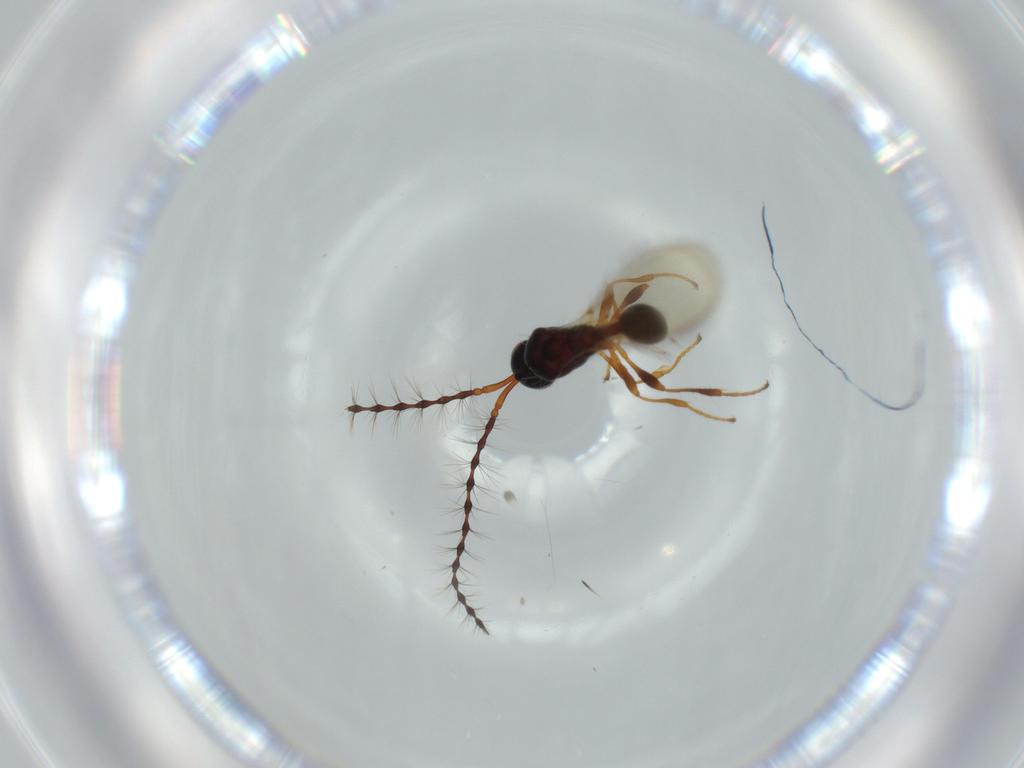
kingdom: Animalia
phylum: Arthropoda
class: Insecta
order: Hymenoptera
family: Diapriidae
